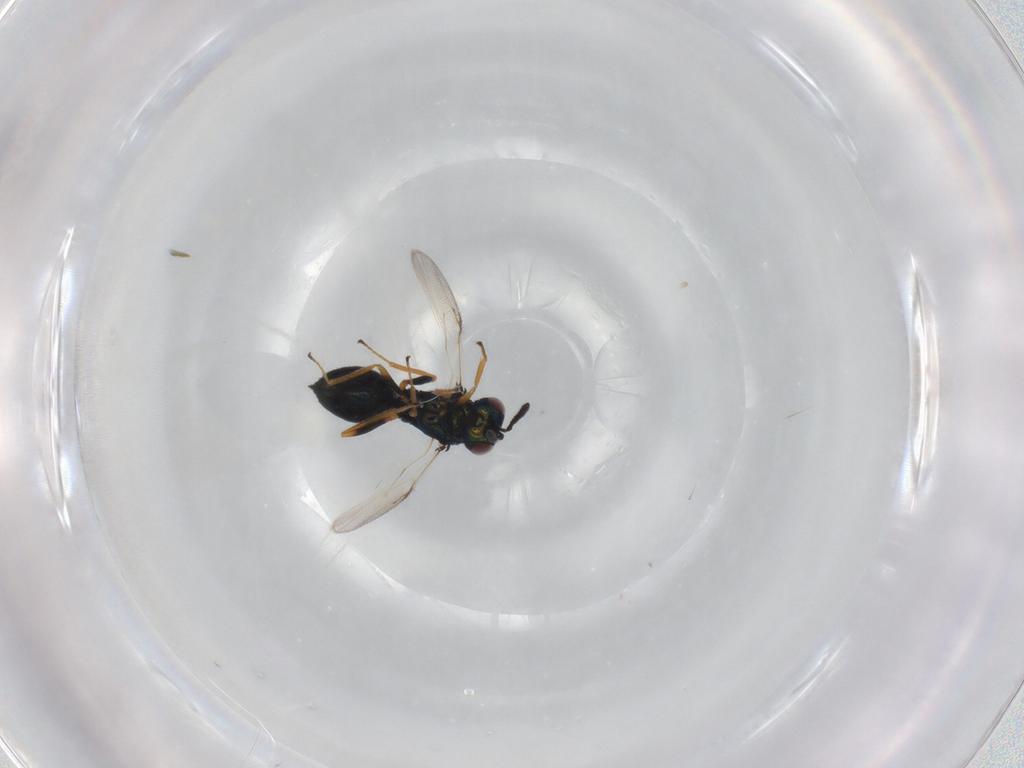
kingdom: Animalia
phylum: Arthropoda
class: Insecta
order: Hymenoptera
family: Chalcidoidea_incertae_sedis
